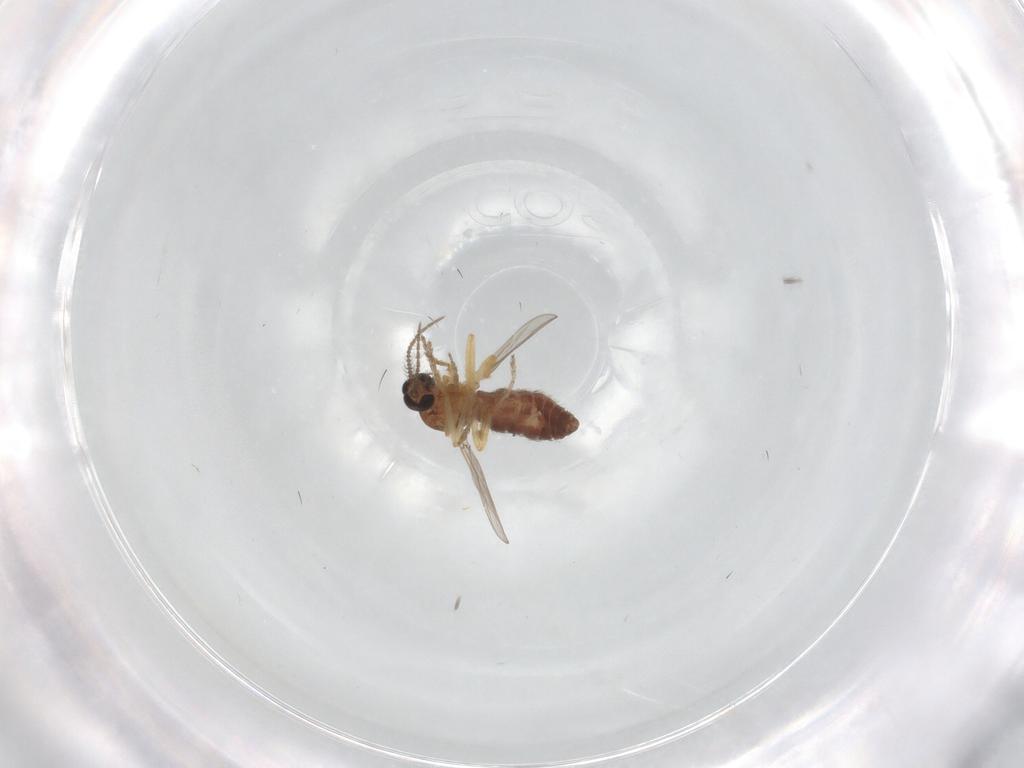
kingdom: Animalia
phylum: Arthropoda
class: Insecta
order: Diptera
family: Ceratopogonidae
